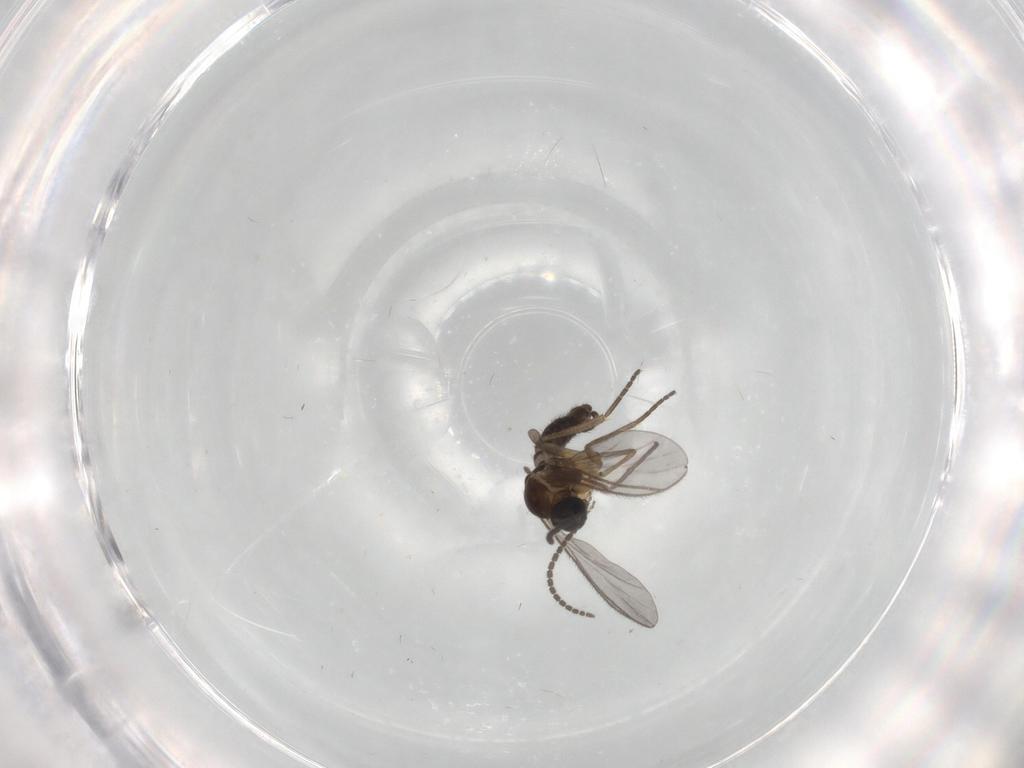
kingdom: Animalia
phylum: Arthropoda
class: Insecta
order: Diptera
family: Sciaridae
